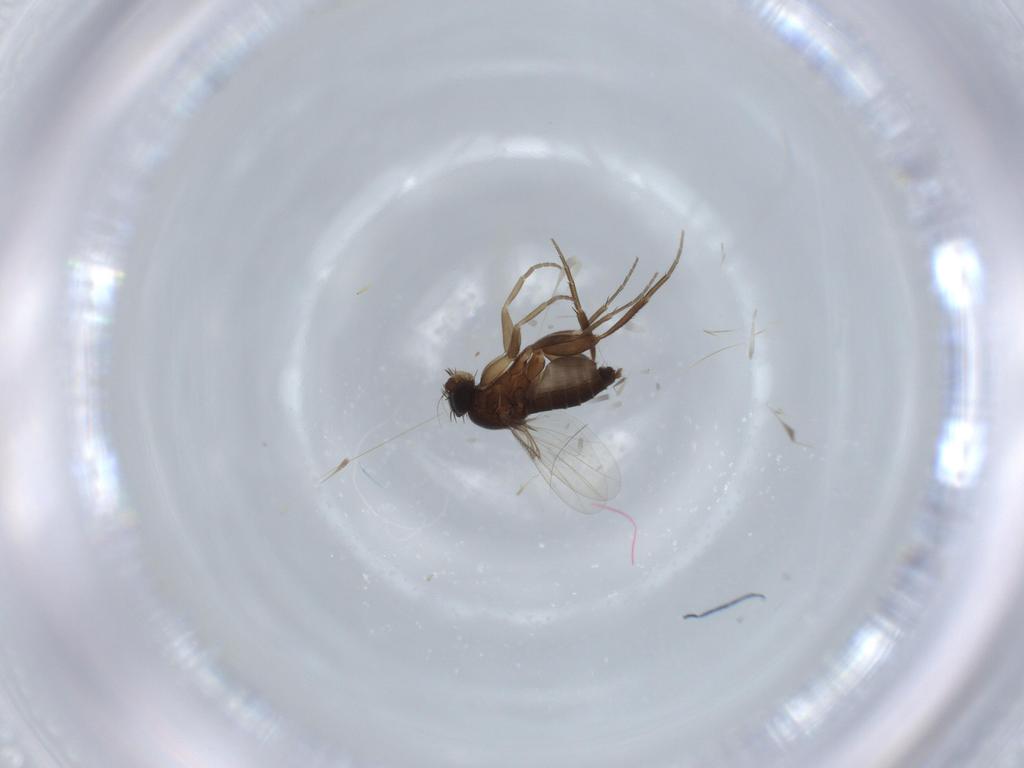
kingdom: Animalia
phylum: Arthropoda
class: Insecta
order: Diptera
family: Phoridae
